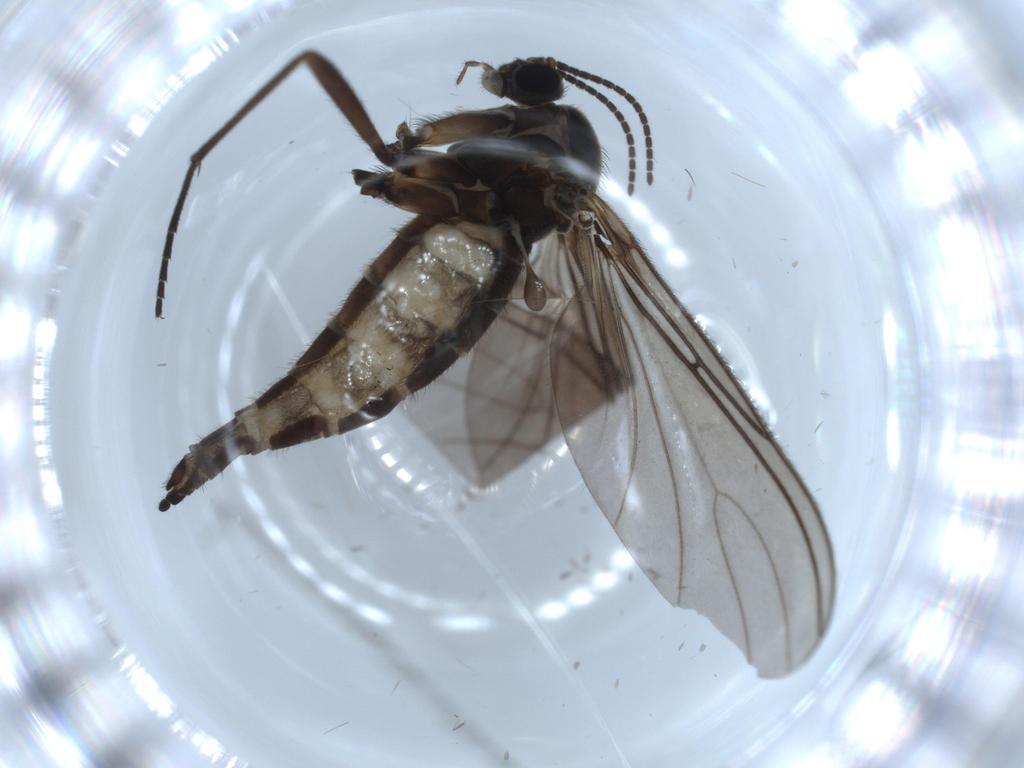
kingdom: Animalia
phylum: Arthropoda
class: Insecta
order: Diptera
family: Sciaridae
